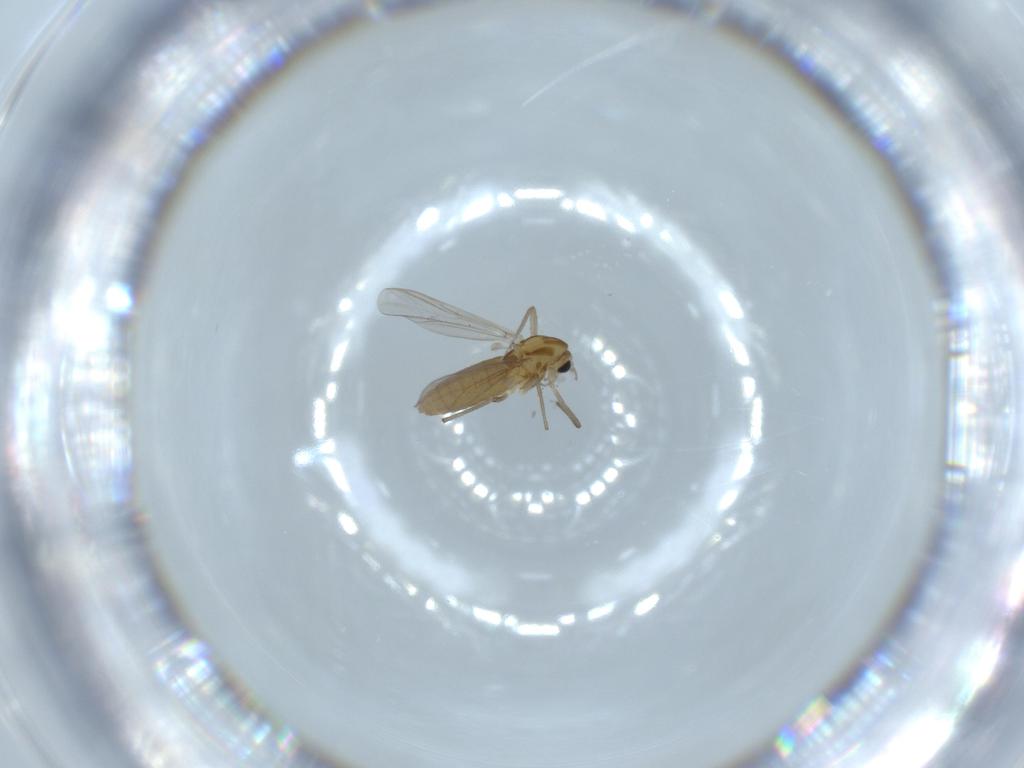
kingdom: Animalia
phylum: Arthropoda
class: Insecta
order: Diptera
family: Chironomidae
